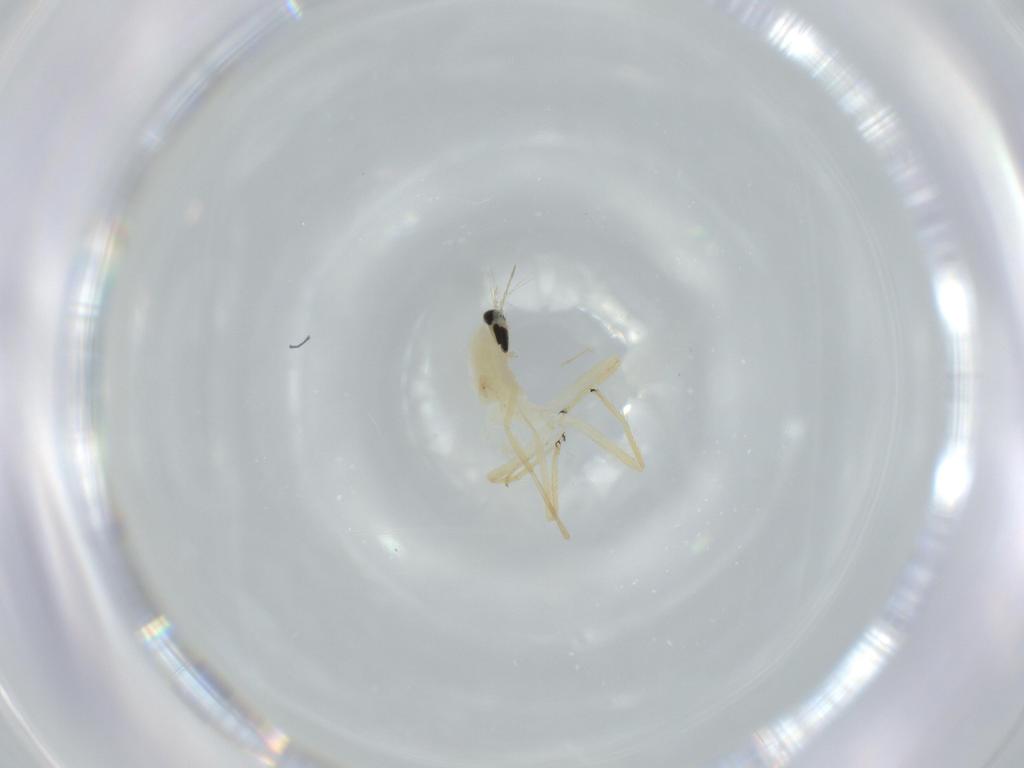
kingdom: Animalia
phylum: Arthropoda
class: Insecta
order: Diptera
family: Chironomidae
